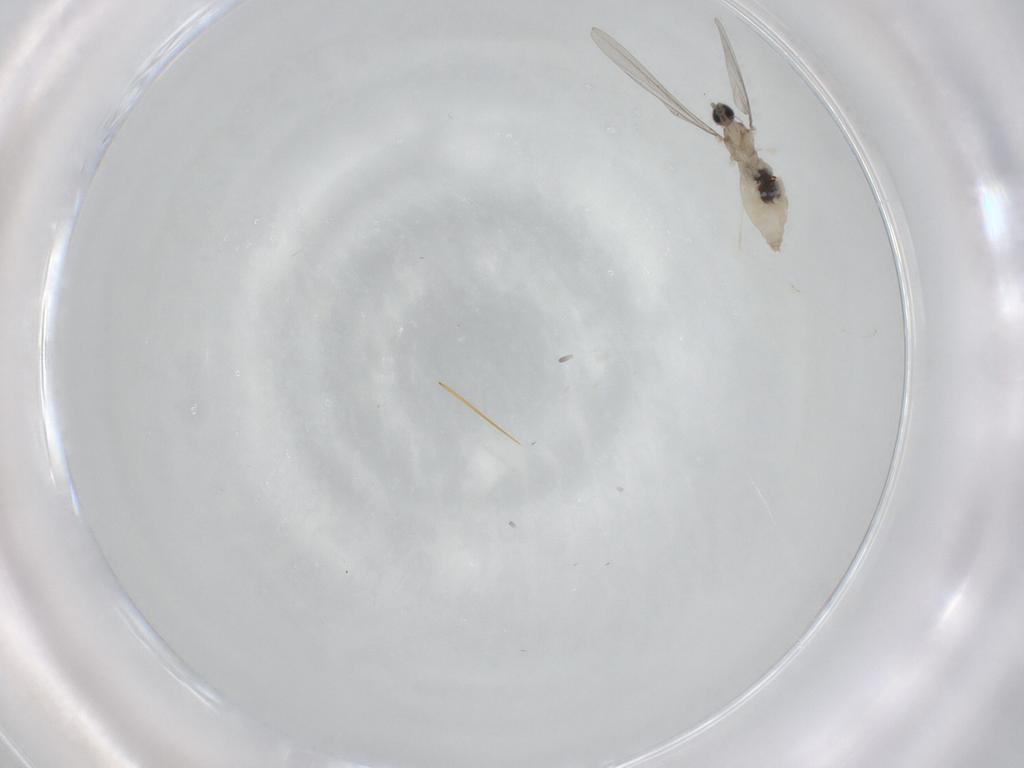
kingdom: Animalia
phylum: Arthropoda
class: Insecta
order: Diptera
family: Cecidomyiidae
